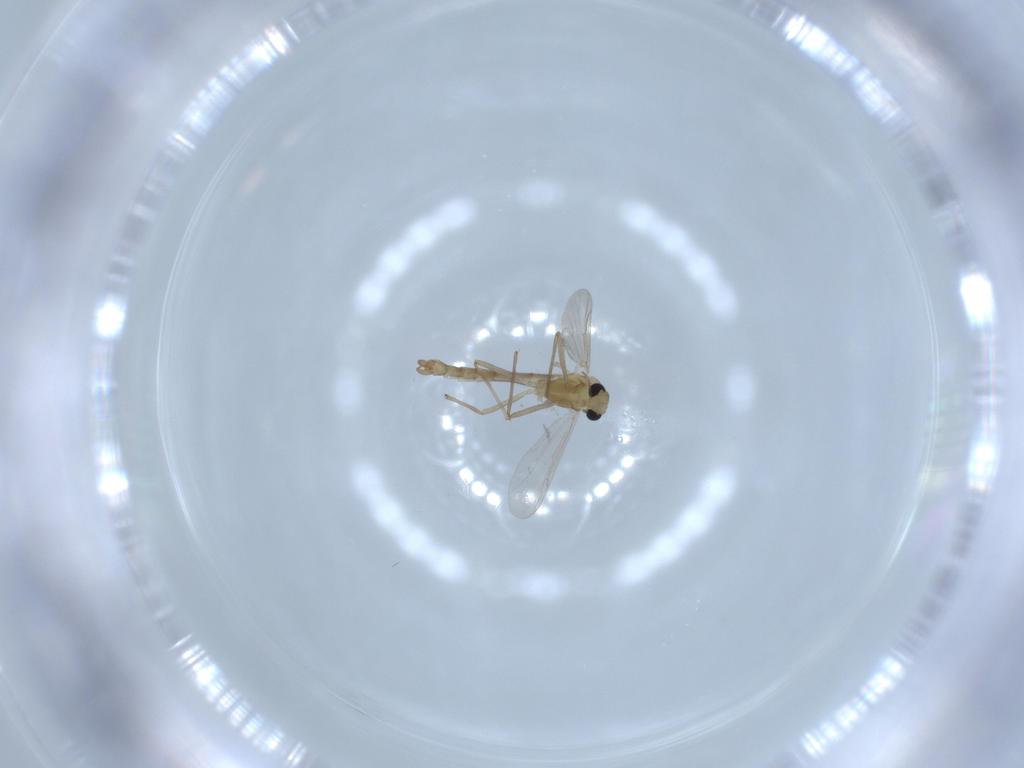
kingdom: Animalia
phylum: Arthropoda
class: Insecta
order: Diptera
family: Chironomidae
